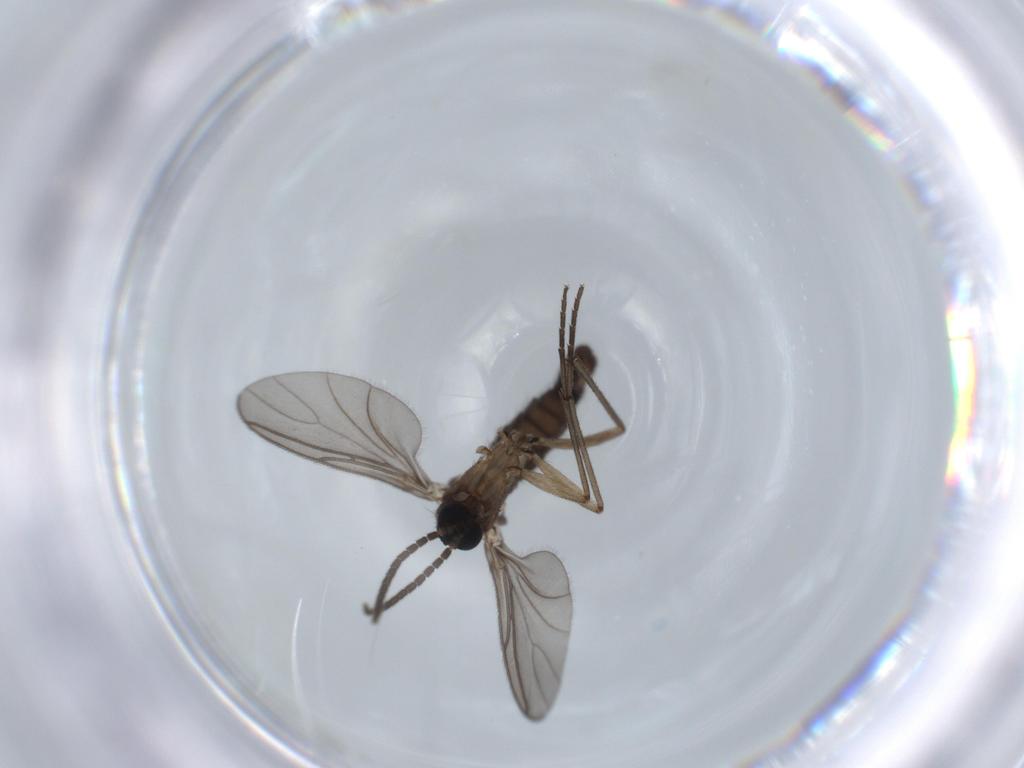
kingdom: Animalia
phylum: Arthropoda
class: Insecta
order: Diptera
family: Sciaridae
